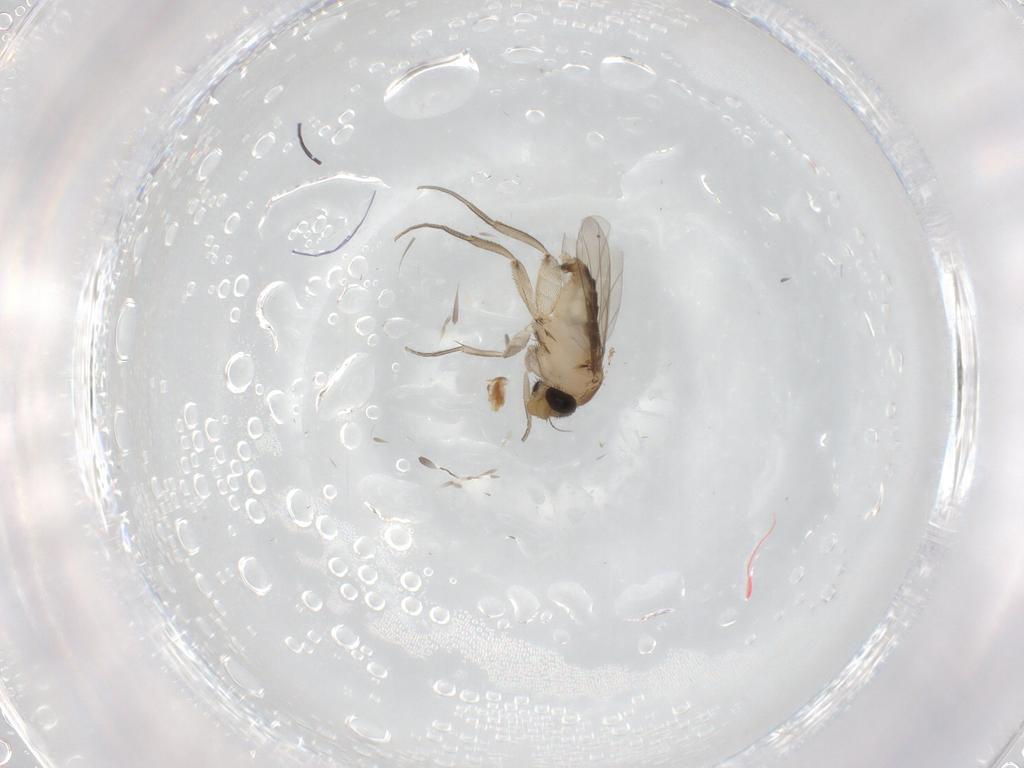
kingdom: Animalia
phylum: Arthropoda
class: Insecta
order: Diptera
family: Phoridae
